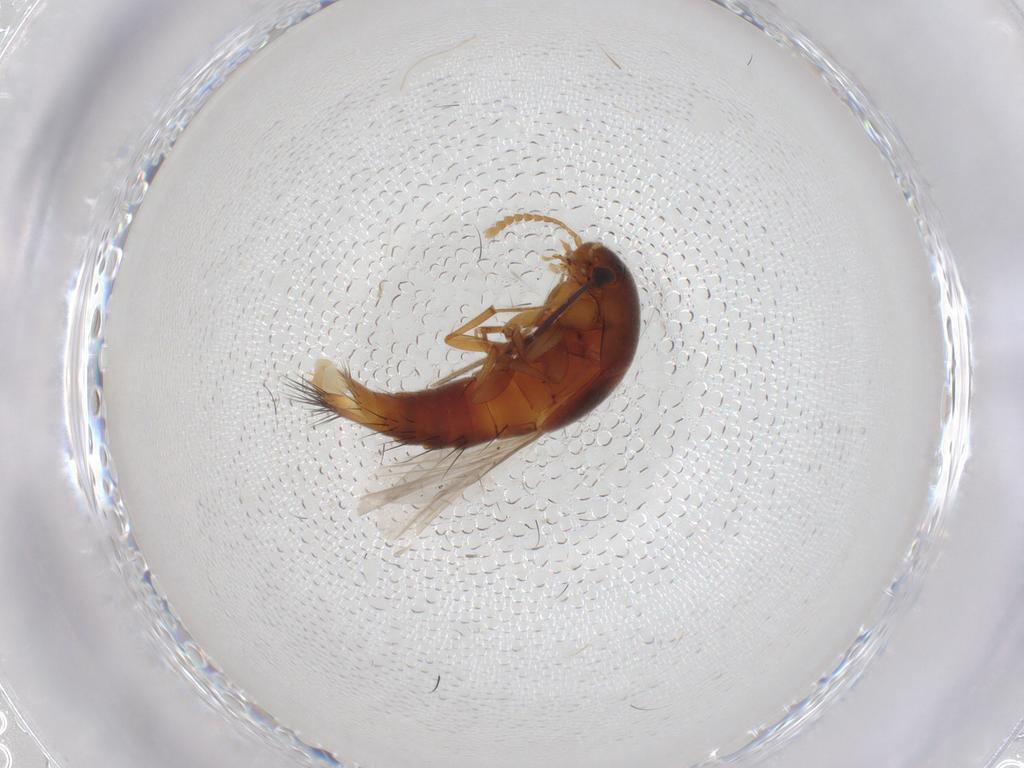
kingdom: Animalia
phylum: Arthropoda
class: Insecta
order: Coleoptera
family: Staphylinidae
